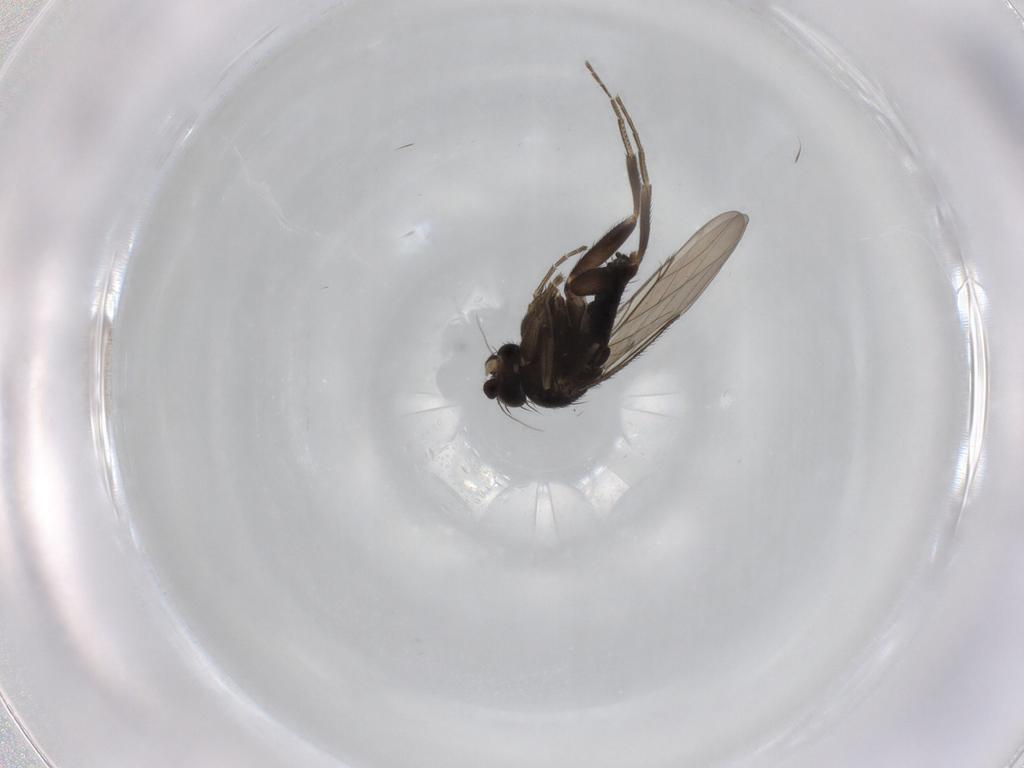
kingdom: Animalia
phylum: Arthropoda
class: Insecta
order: Diptera
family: Phoridae
